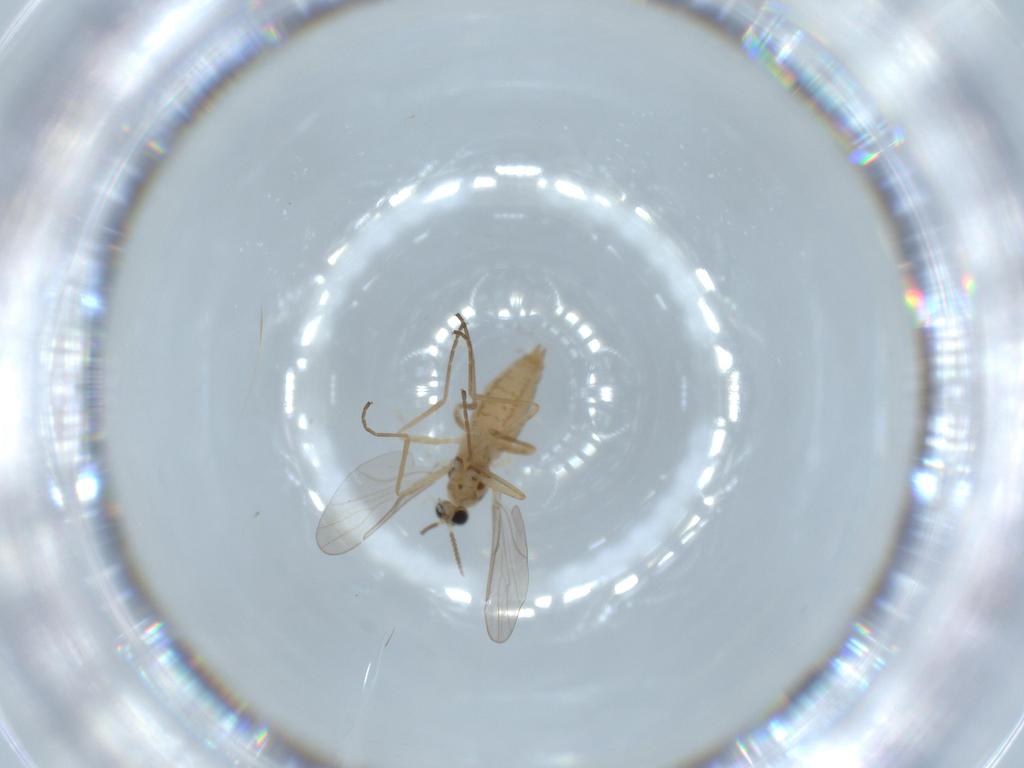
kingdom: Animalia
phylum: Arthropoda
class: Insecta
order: Diptera
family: Cecidomyiidae
